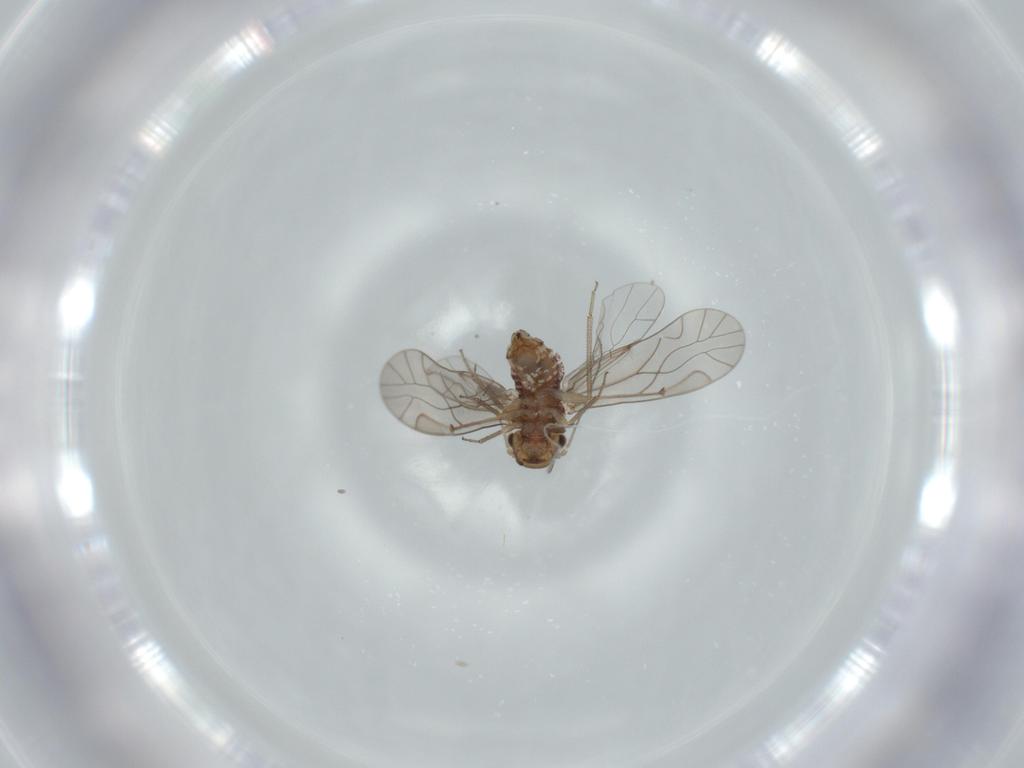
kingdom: Animalia
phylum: Arthropoda
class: Insecta
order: Psocodea
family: Lachesillidae
